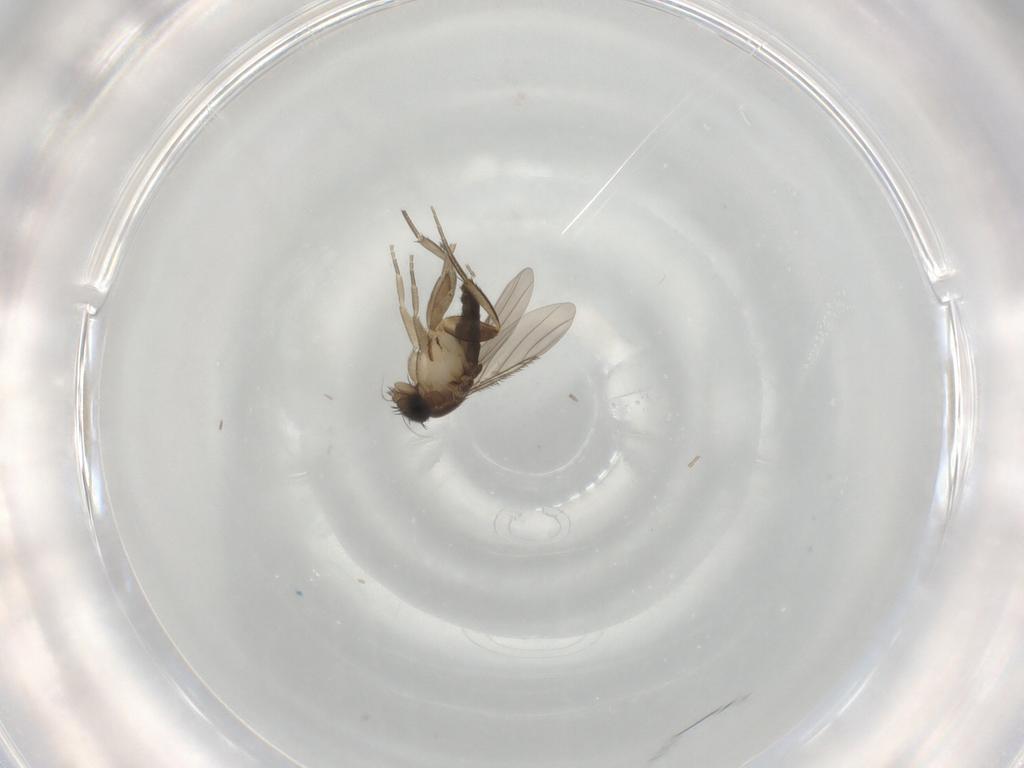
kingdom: Animalia
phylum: Arthropoda
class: Insecta
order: Diptera
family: Phoridae
